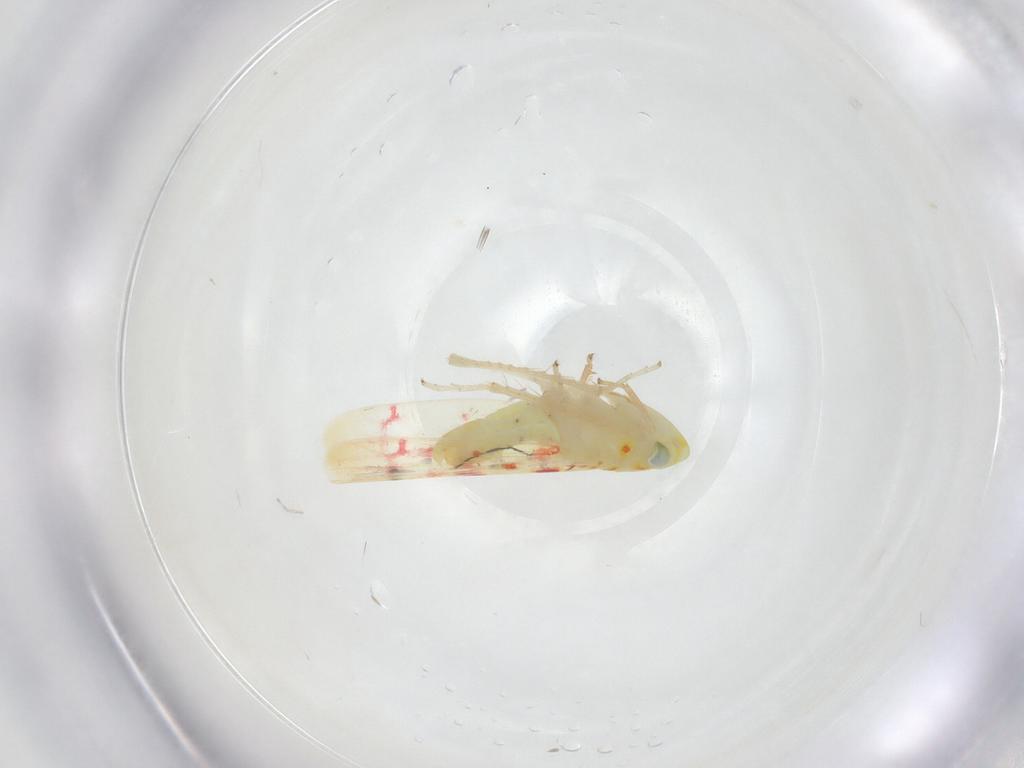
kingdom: Animalia
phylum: Arthropoda
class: Insecta
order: Hemiptera
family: Cicadellidae
